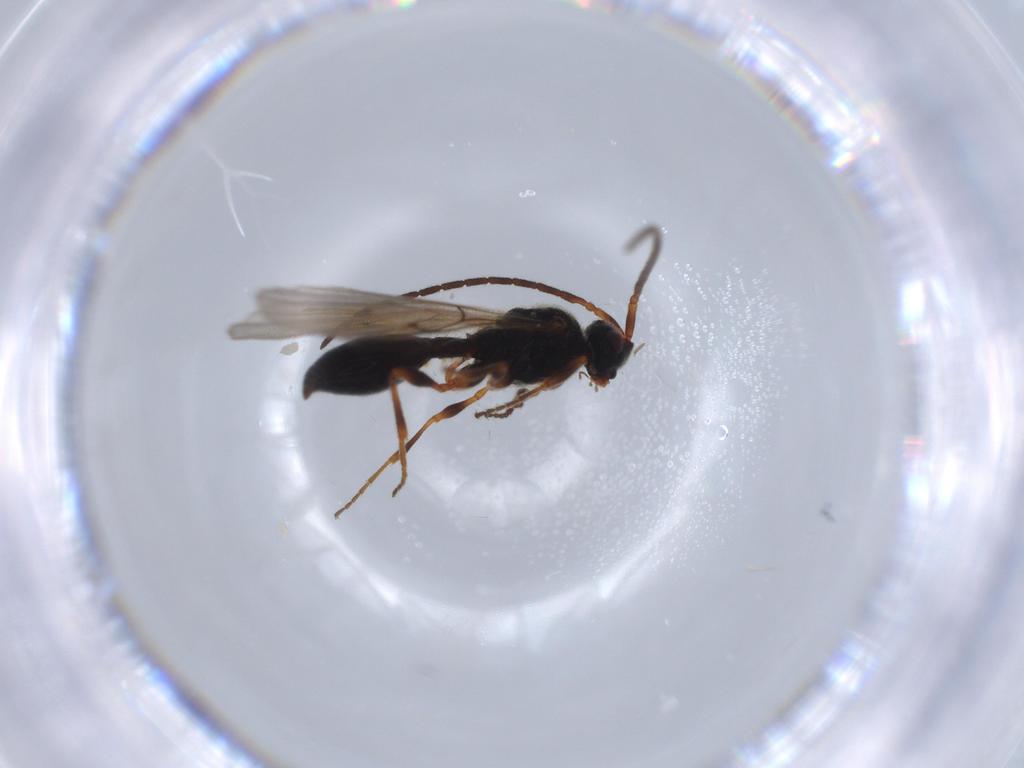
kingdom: Animalia
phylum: Arthropoda
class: Insecta
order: Hymenoptera
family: Diapriidae
